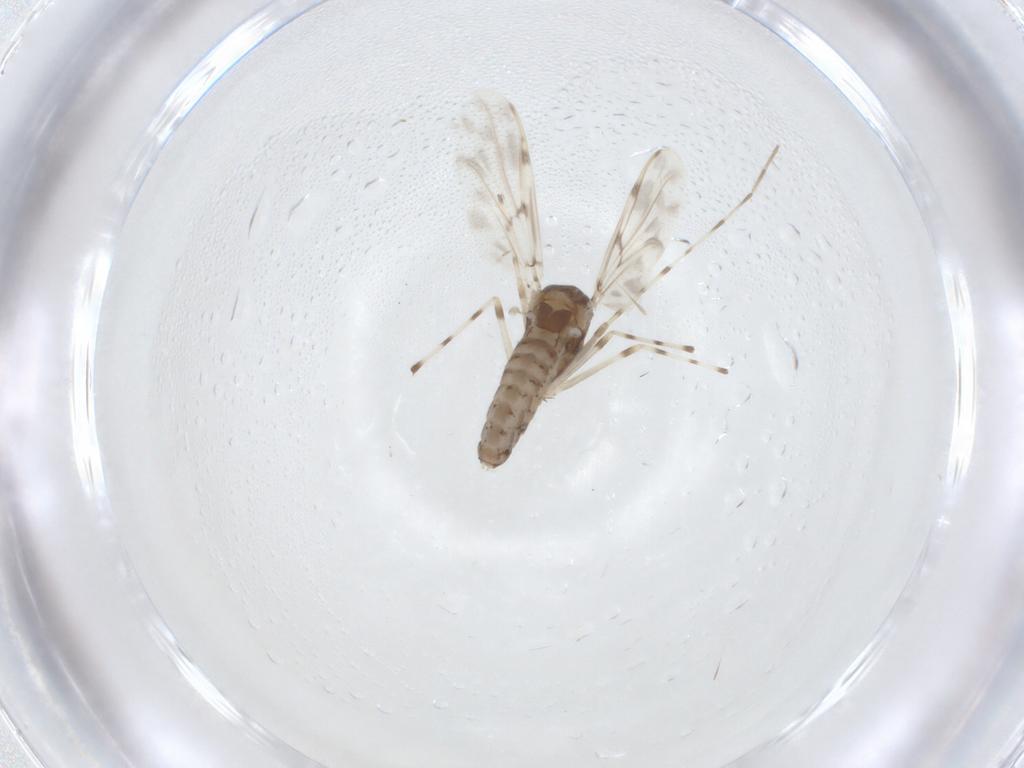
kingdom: Animalia
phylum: Arthropoda
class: Insecta
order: Diptera
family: Chironomidae
